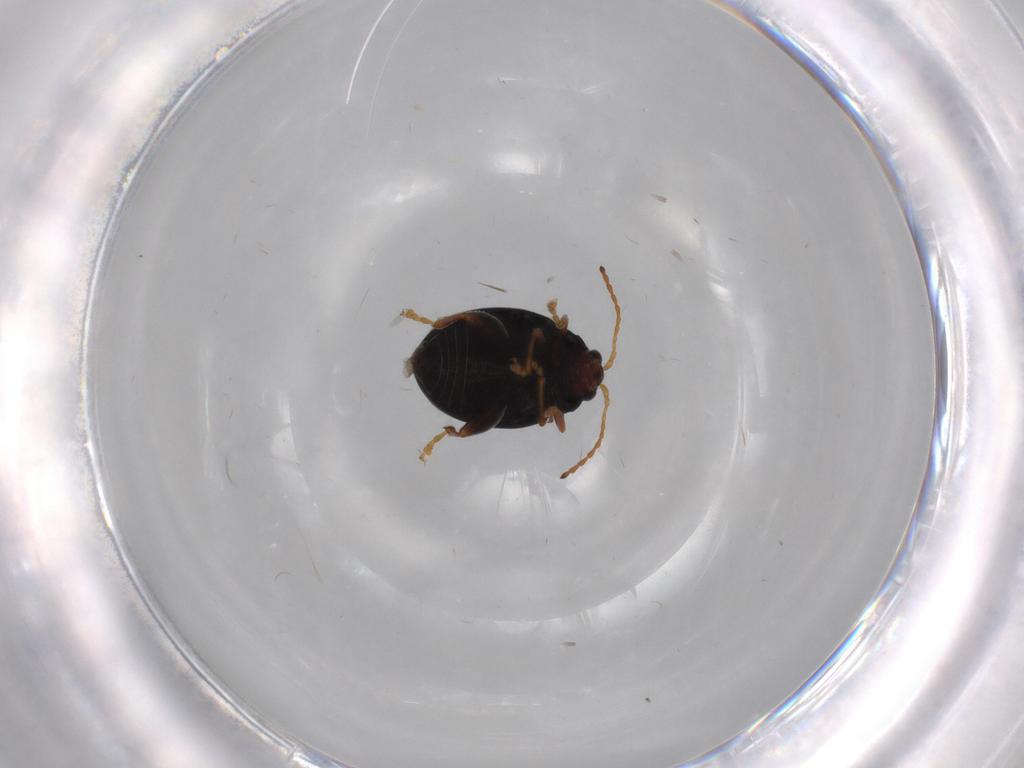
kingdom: Animalia
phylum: Arthropoda
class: Insecta
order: Coleoptera
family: Chrysomelidae
